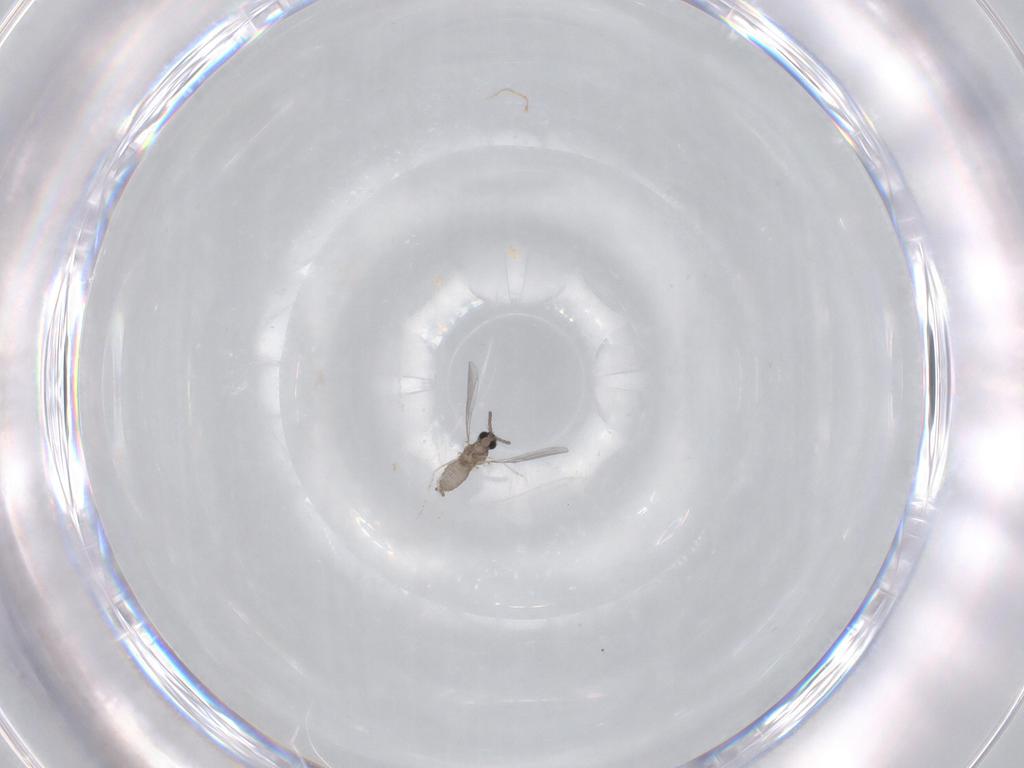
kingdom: Animalia
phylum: Arthropoda
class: Insecta
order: Diptera
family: Cecidomyiidae
